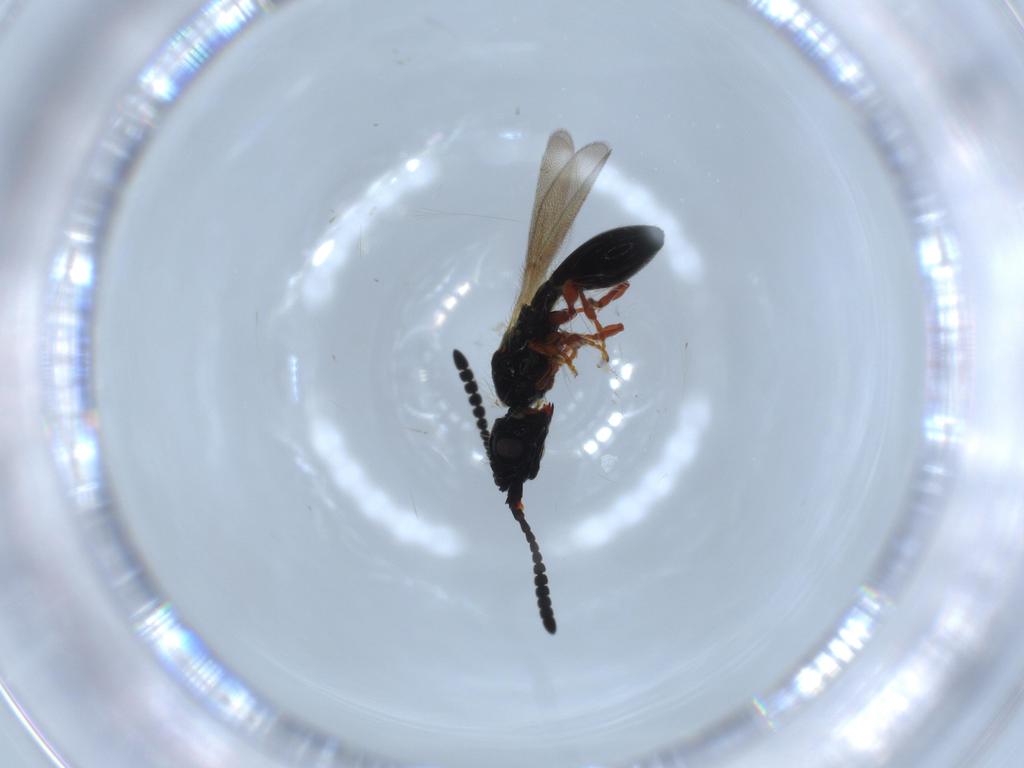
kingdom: Animalia
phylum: Arthropoda
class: Insecta
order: Hymenoptera
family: Diapriidae
